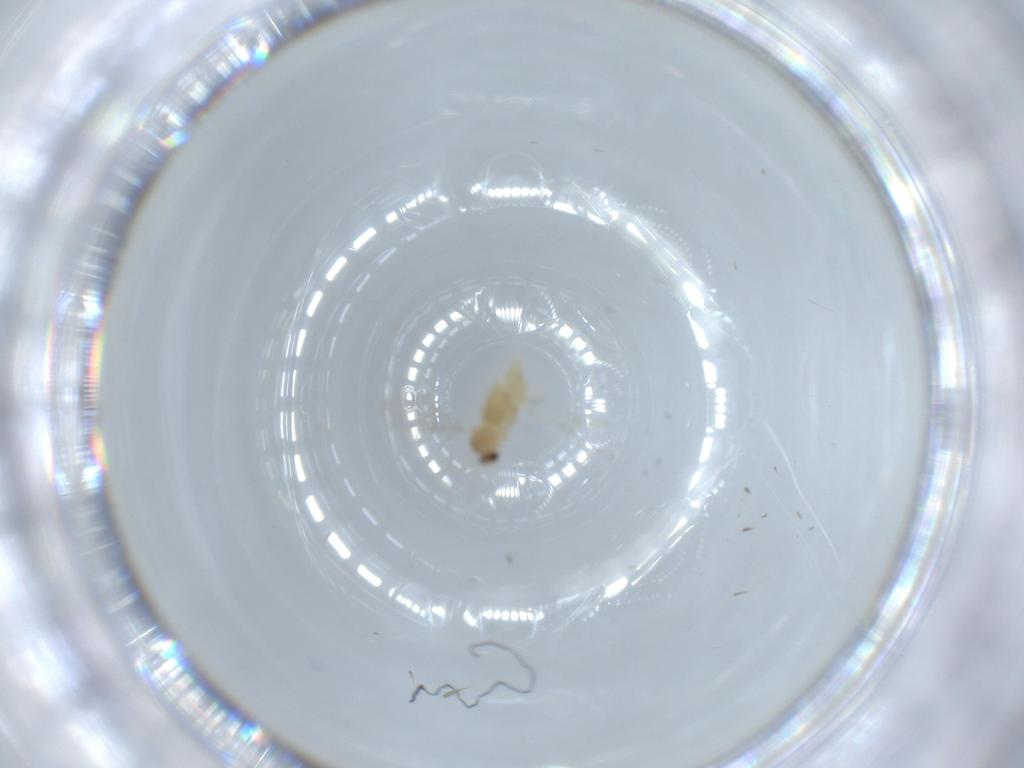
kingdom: Animalia
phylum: Arthropoda
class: Insecta
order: Diptera
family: Cecidomyiidae
